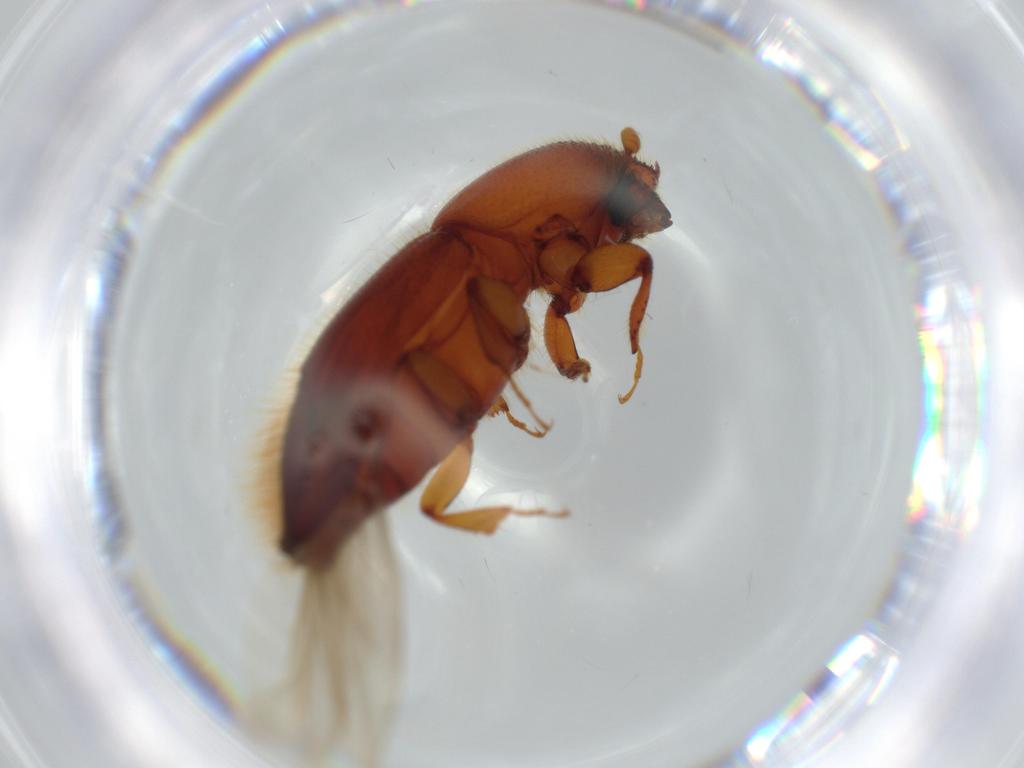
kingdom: Animalia
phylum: Arthropoda
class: Insecta
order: Coleoptera
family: Curculionidae
